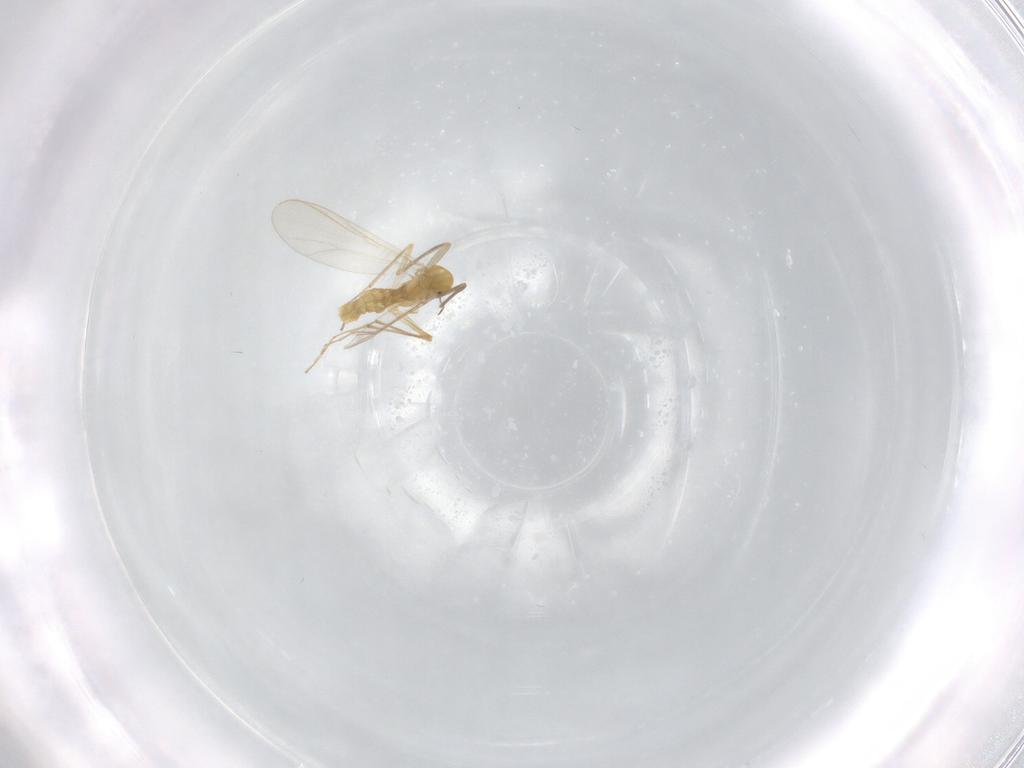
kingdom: Animalia
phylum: Arthropoda
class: Insecta
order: Diptera
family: Chironomidae
